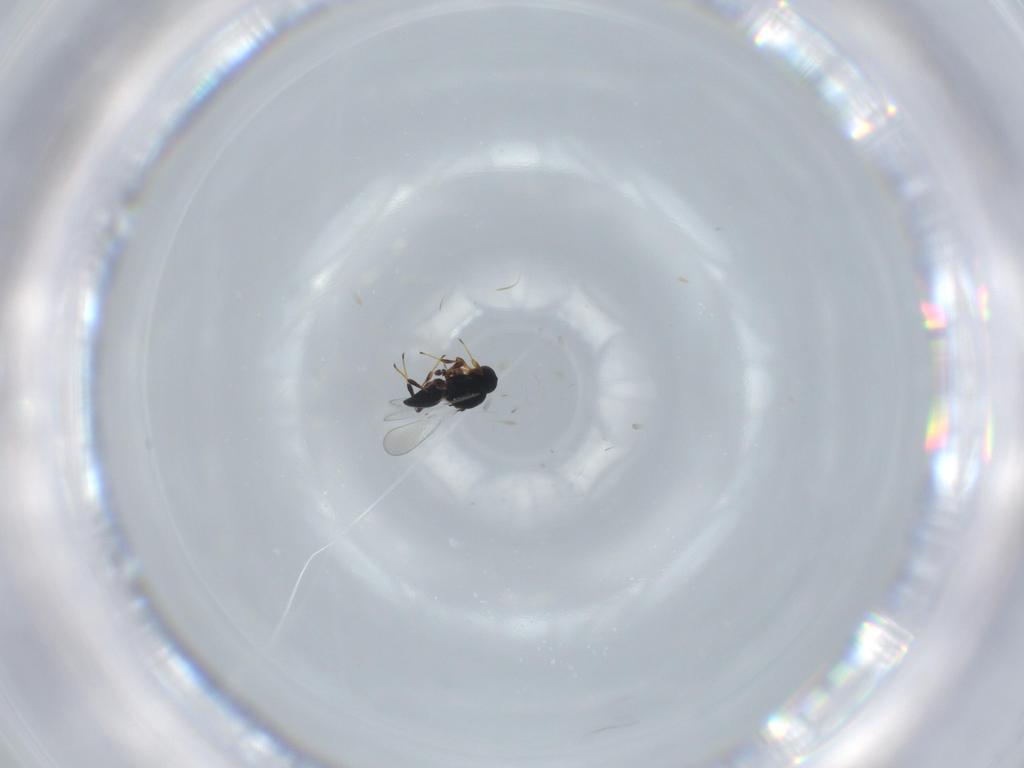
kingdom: Animalia
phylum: Arthropoda
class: Insecta
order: Hymenoptera
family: Platygastridae
